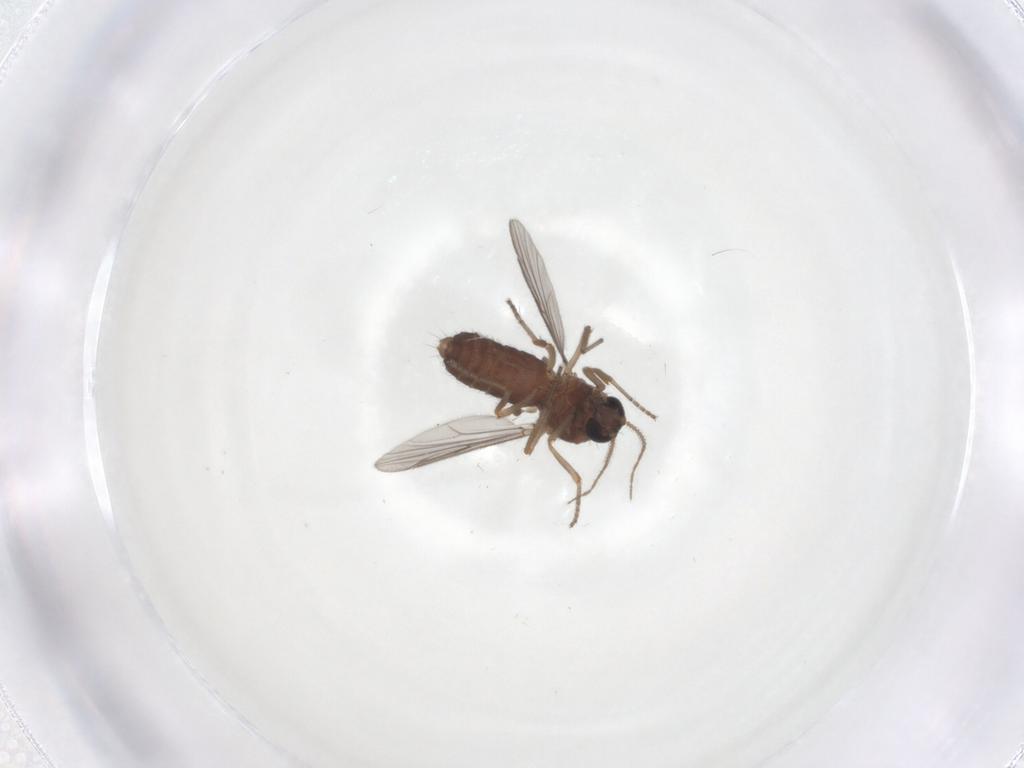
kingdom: Animalia
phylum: Arthropoda
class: Insecta
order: Diptera
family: Ceratopogonidae
